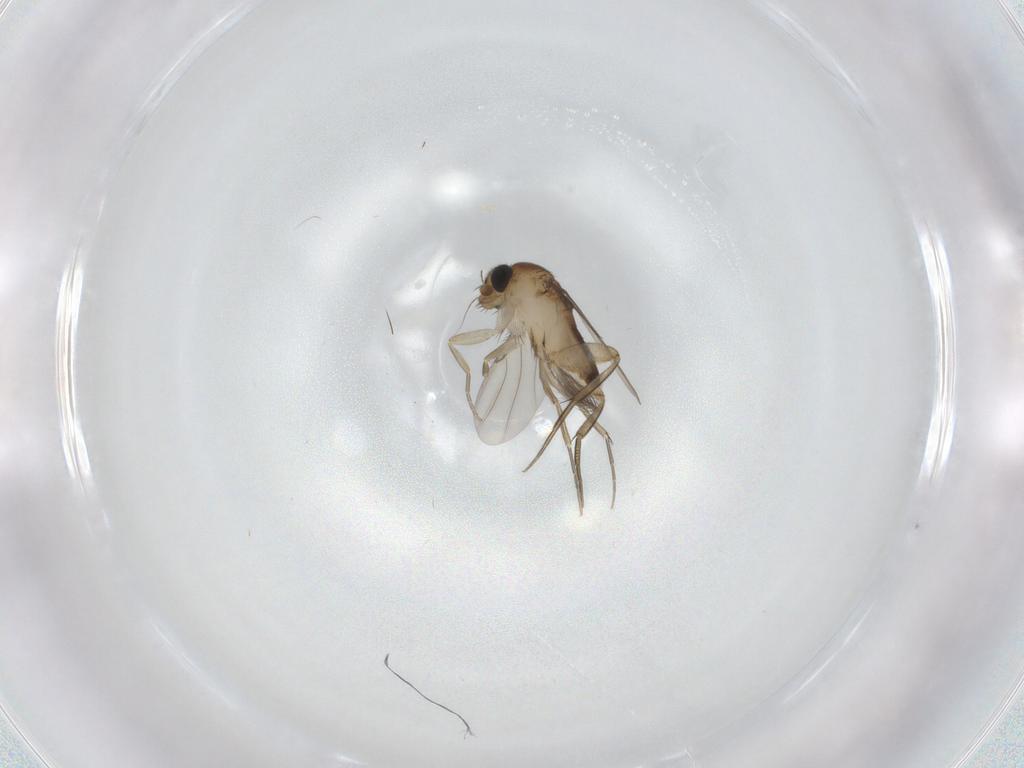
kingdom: Animalia
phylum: Arthropoda
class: Insecta
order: Diptera
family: Phoridae
